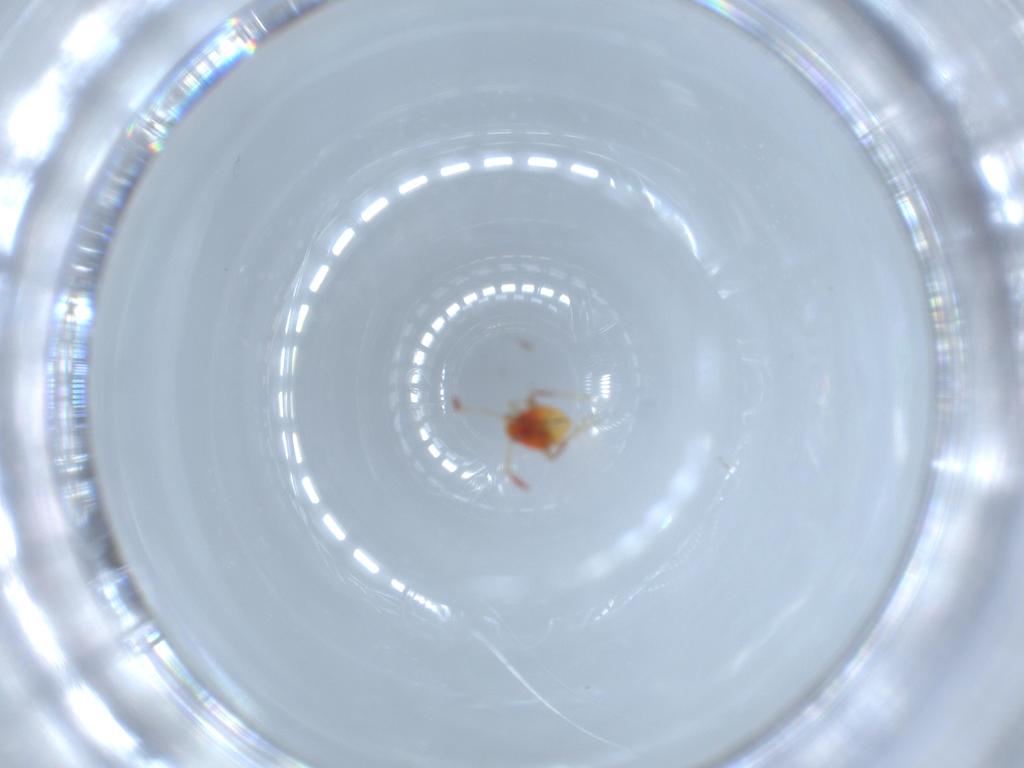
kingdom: Animalia
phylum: Arthropoda
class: Insecta
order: Hemiptera
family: Miridae
